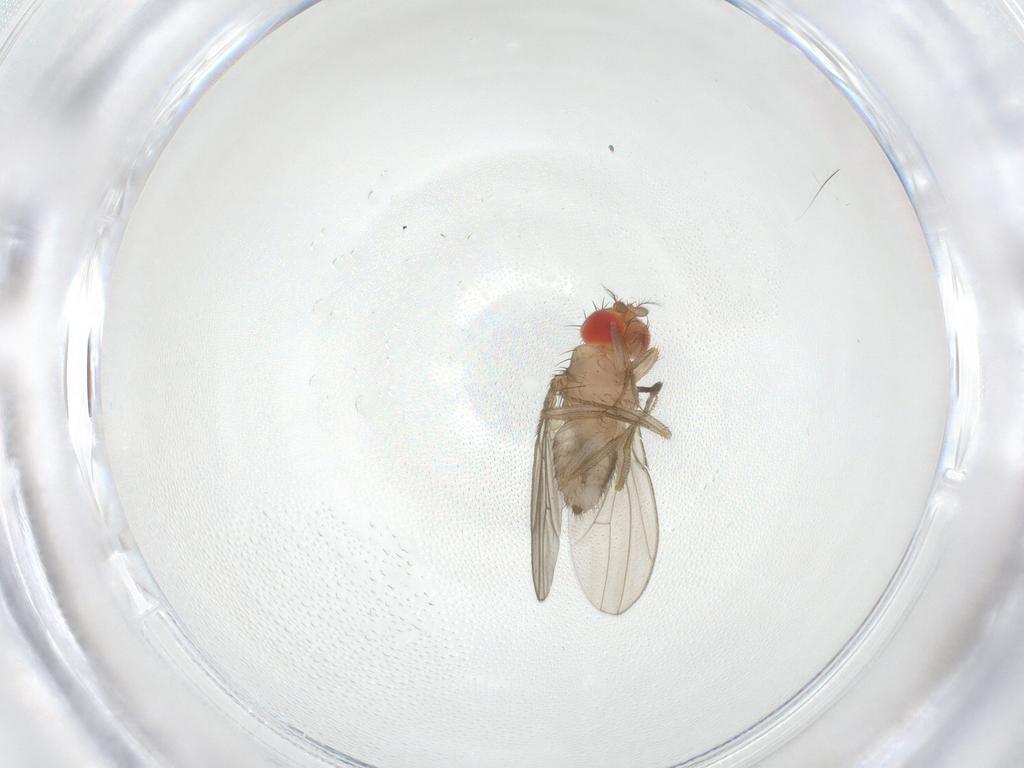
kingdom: Animalia
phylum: Arthropoda
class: Insecta
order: Diptera
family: Drosophilidae
